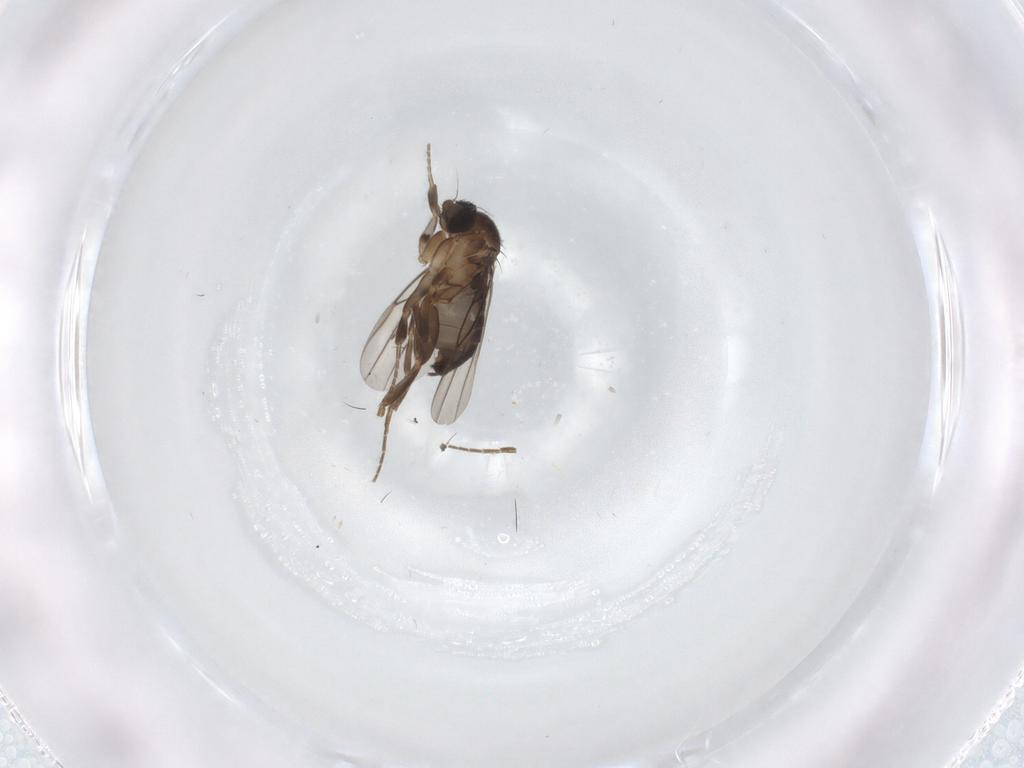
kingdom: Animalia
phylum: Arthropoda
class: Insecta
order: Diptera
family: Phoridae
